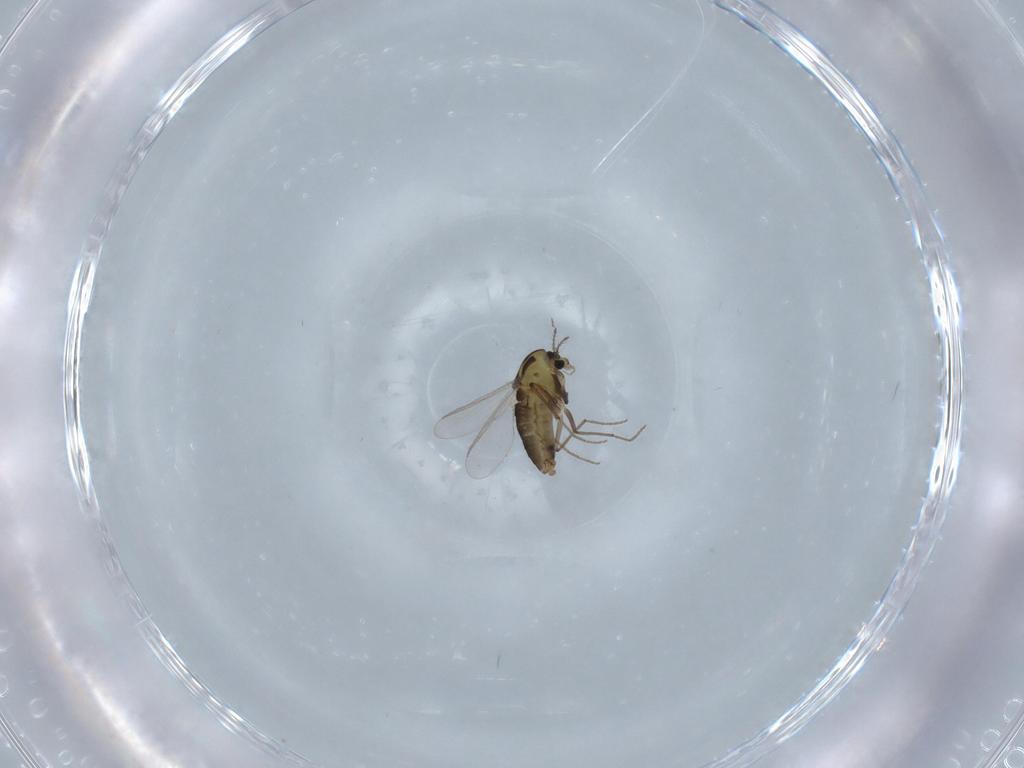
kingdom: Animalia
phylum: Arthropoda
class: Insecta
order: Diptera
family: Chironomidae
